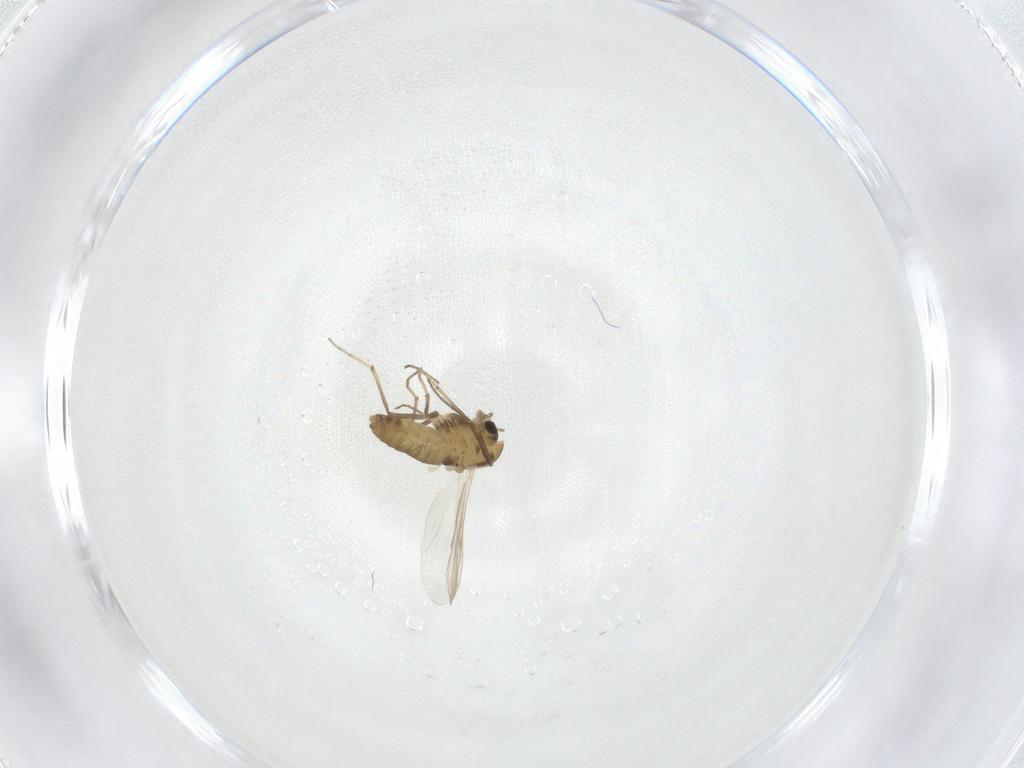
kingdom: Animalia
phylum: Arthropoda
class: Insecta
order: Diptera
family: Chironomidae
